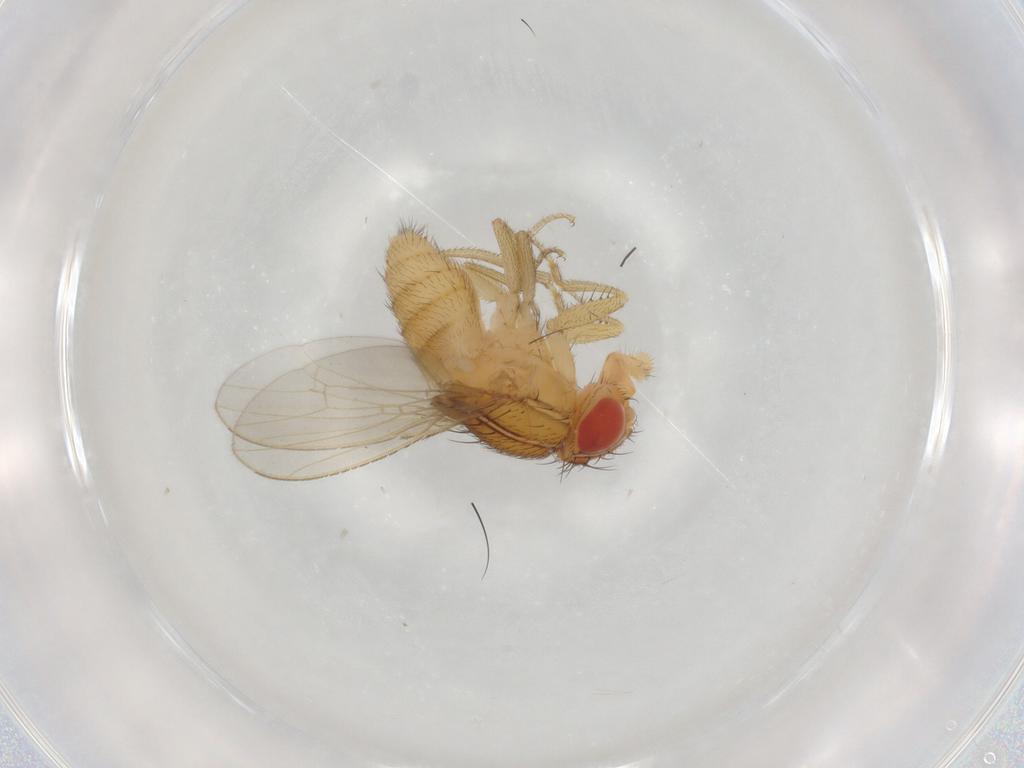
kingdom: Animalia
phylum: Arthropoda
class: Insecta
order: Diptera
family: Drosophilidae
